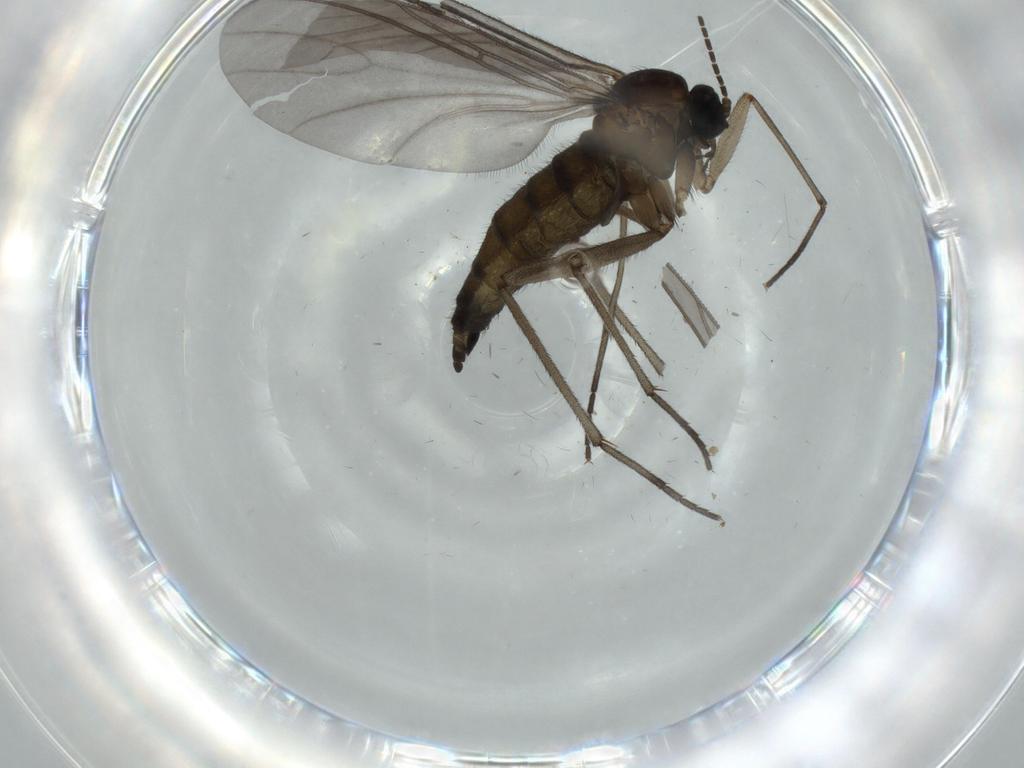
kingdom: Animalia
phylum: Arthropoda
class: Insecta
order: Diptera
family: Sciaridae
